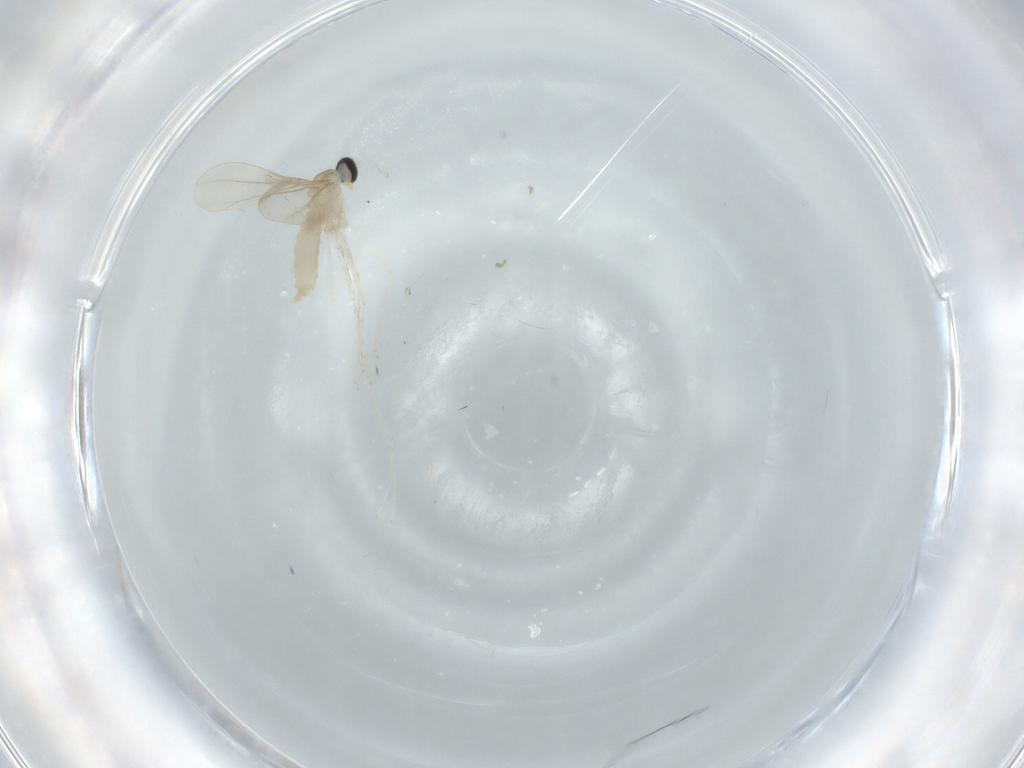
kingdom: Animalia
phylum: Arthropoda
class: Insecta
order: Diptera
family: Cecidomyiidae
